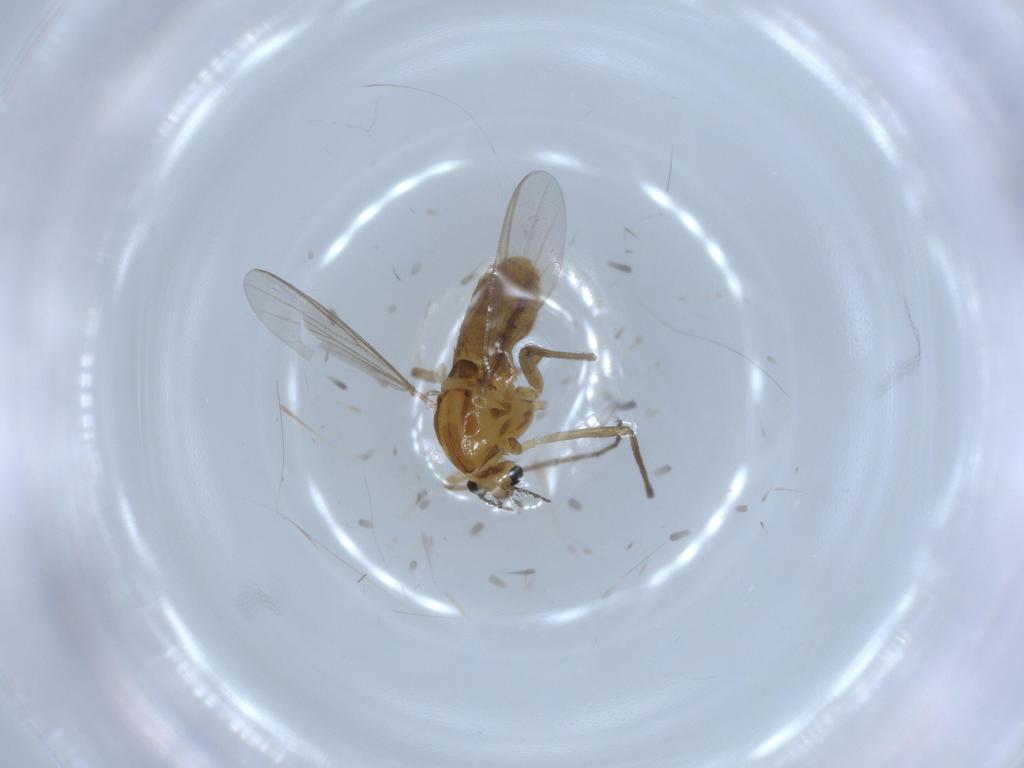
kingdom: Animalia
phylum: Arthropoda
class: Insecta
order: Diptera
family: Chironomidae
